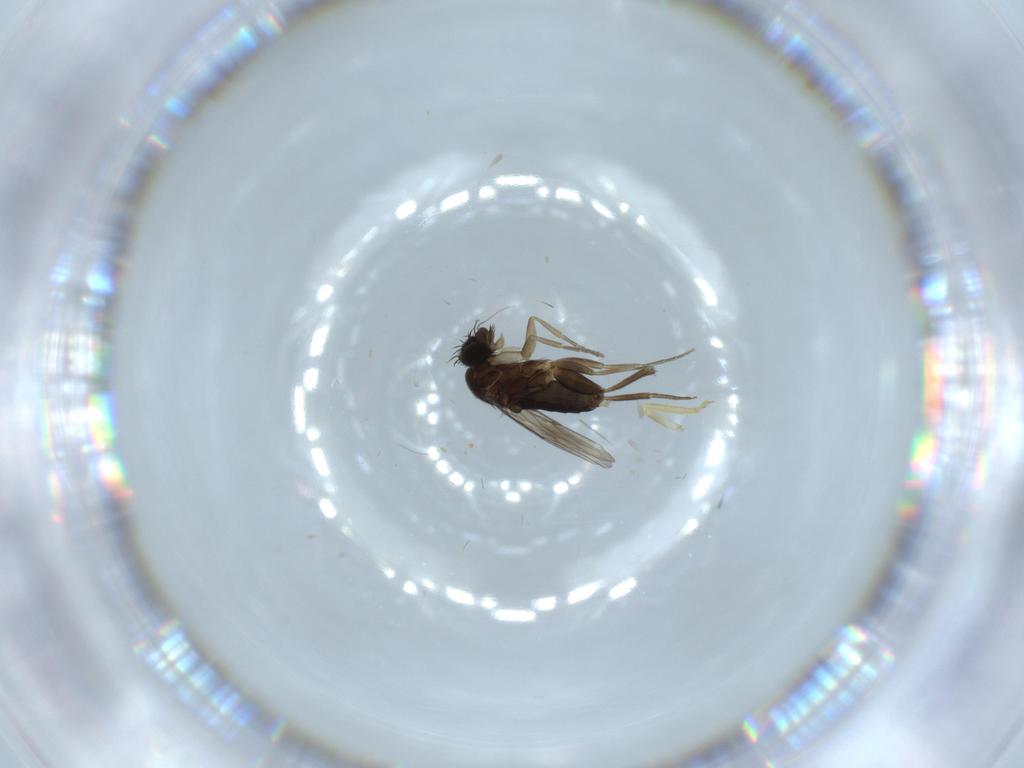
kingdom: Animalia
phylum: Arthropoda
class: Insecta
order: Diptera
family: Phoridae
